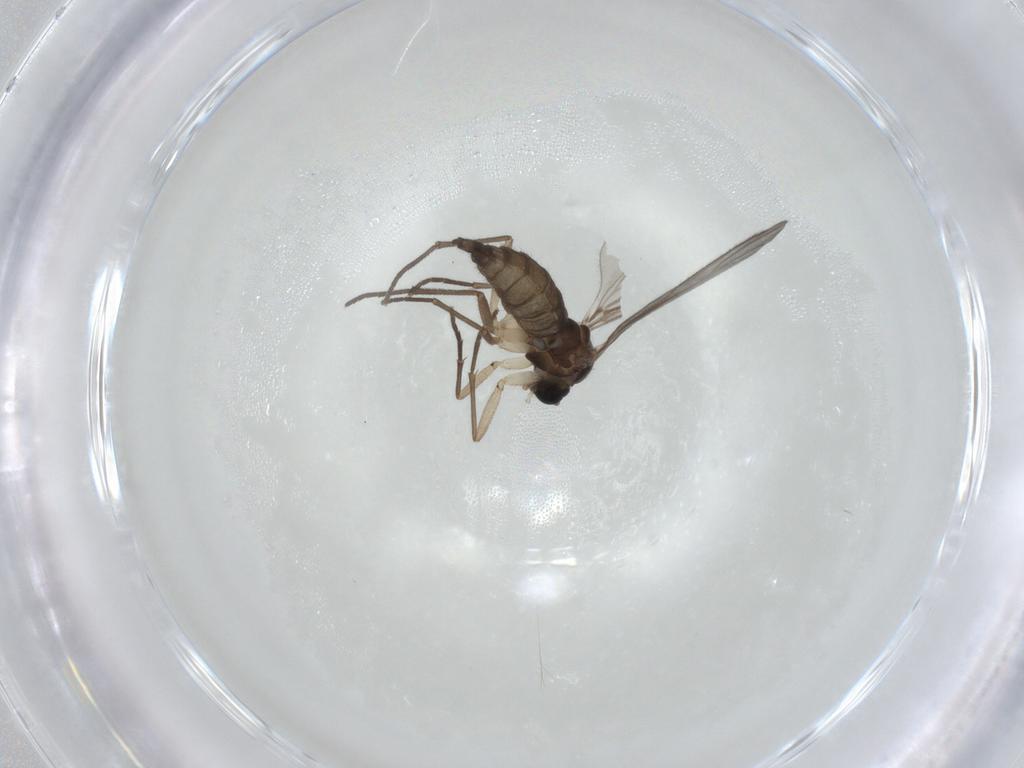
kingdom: Animalia
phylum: Arthropoda
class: Insecta
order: Diptera
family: Sciaridae
